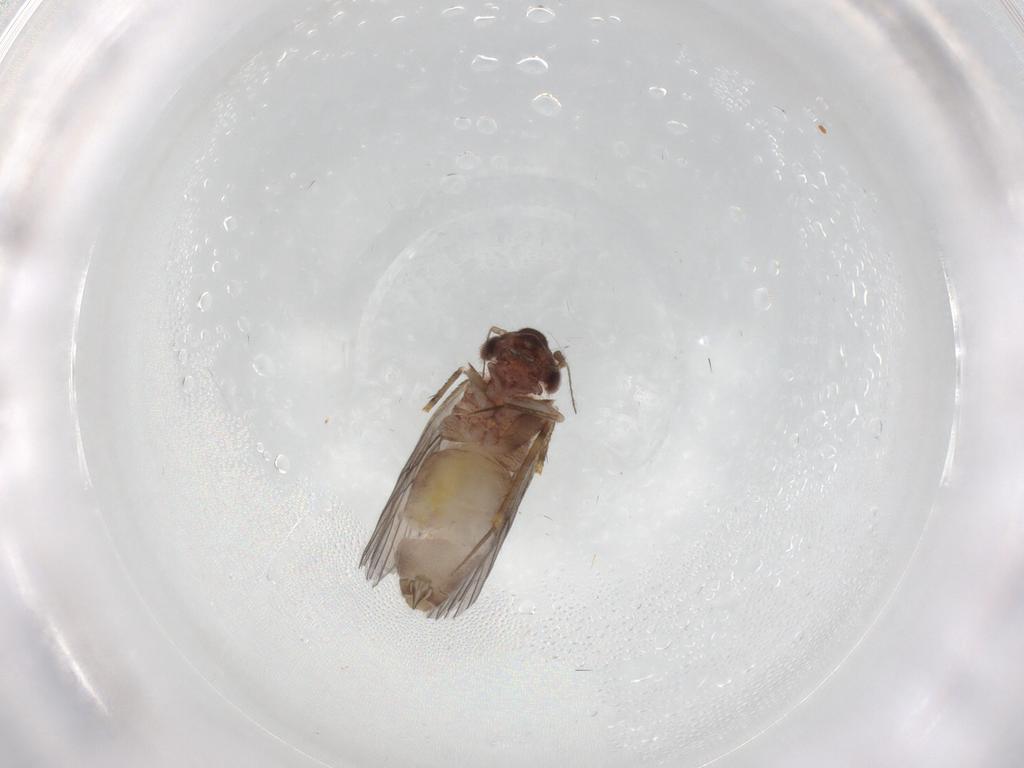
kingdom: Animalia
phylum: Arthropoda
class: Insecta
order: Psocodea
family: Lepidopsocidae
